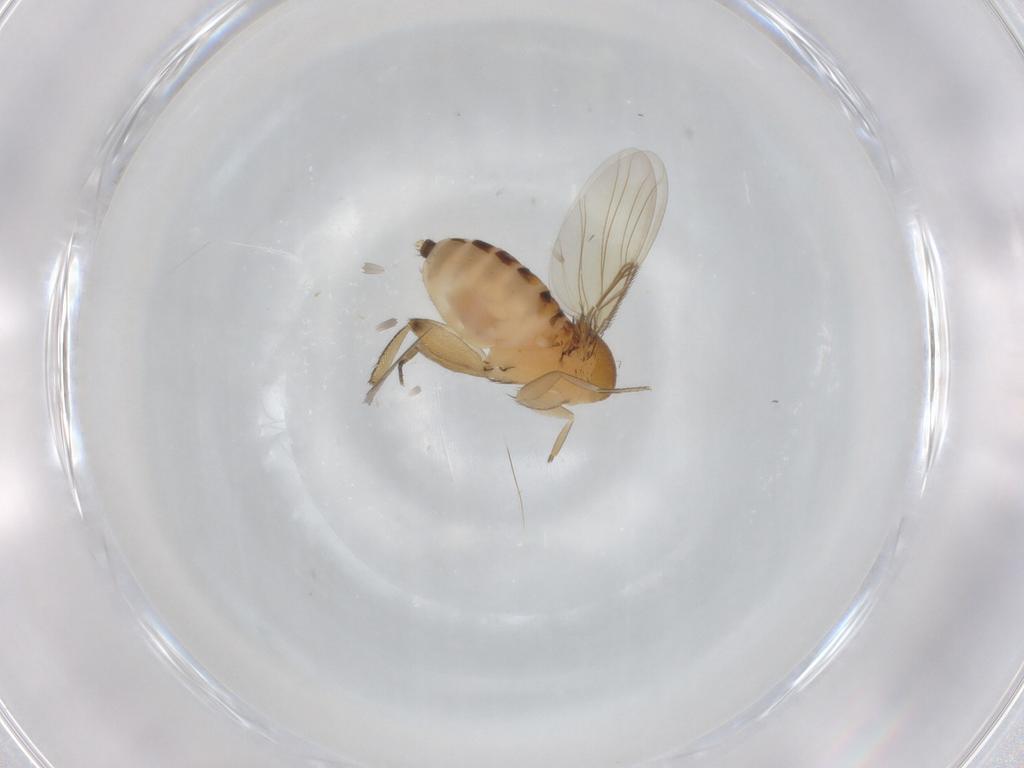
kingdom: Animalia
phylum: Arthropoda
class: Insecta
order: Diptera
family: Phoridae
